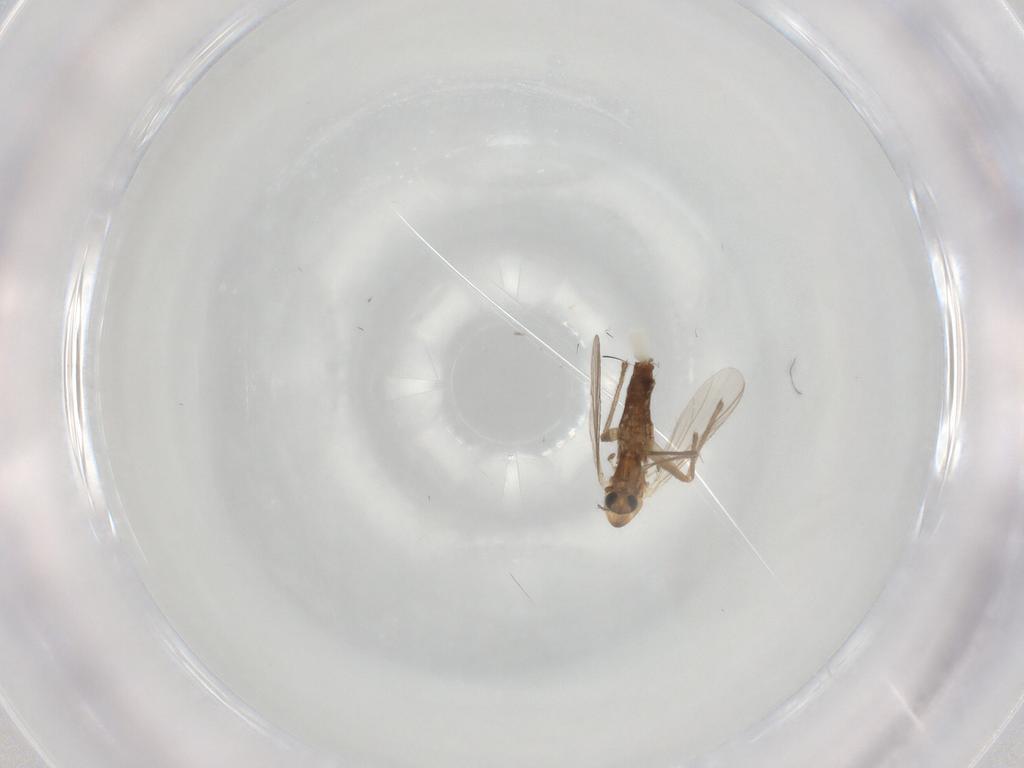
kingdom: Animalia
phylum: Arthropoda
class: Insecta
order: Diptera
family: Chironomidae
